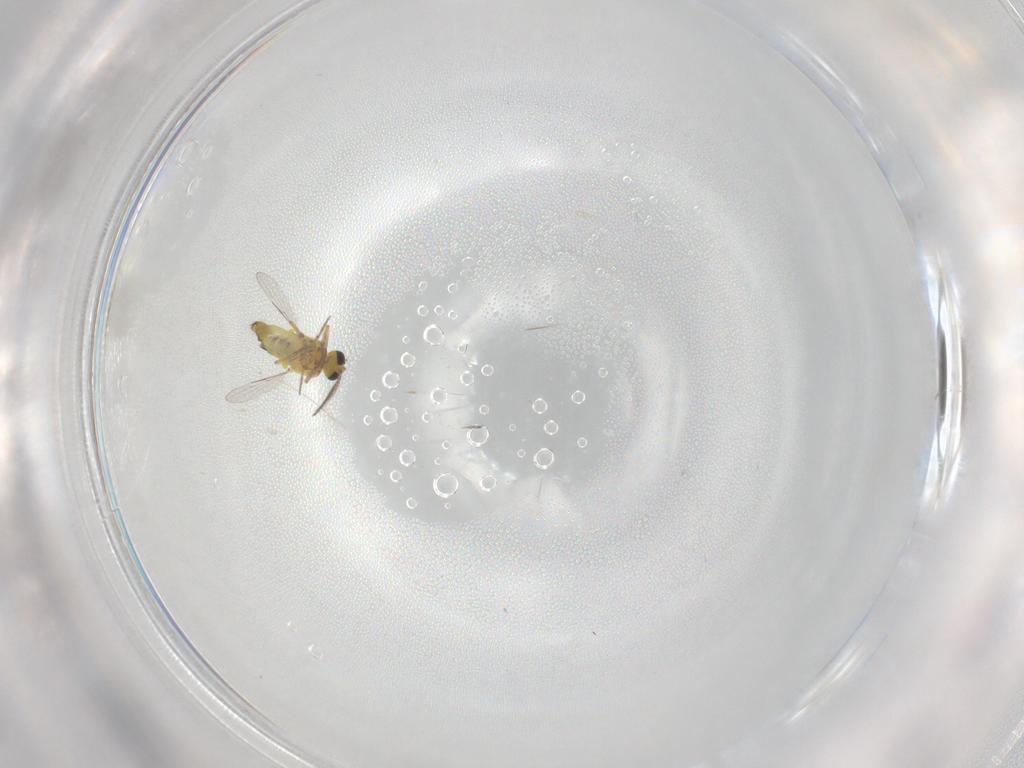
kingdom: Animalia
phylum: Arthropoda
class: Insecta
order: Diptera
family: Ceratopogonidae
